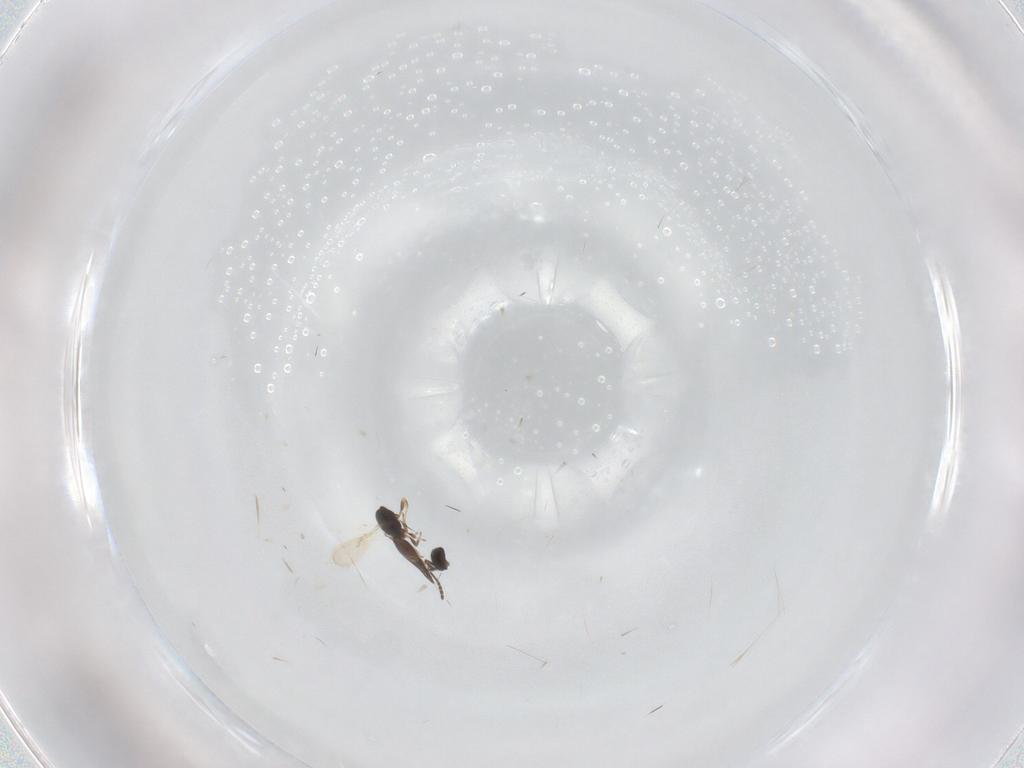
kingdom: Animalia
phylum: Arthropoda
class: Insecta
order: Hymenoptera
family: Scelionidae
